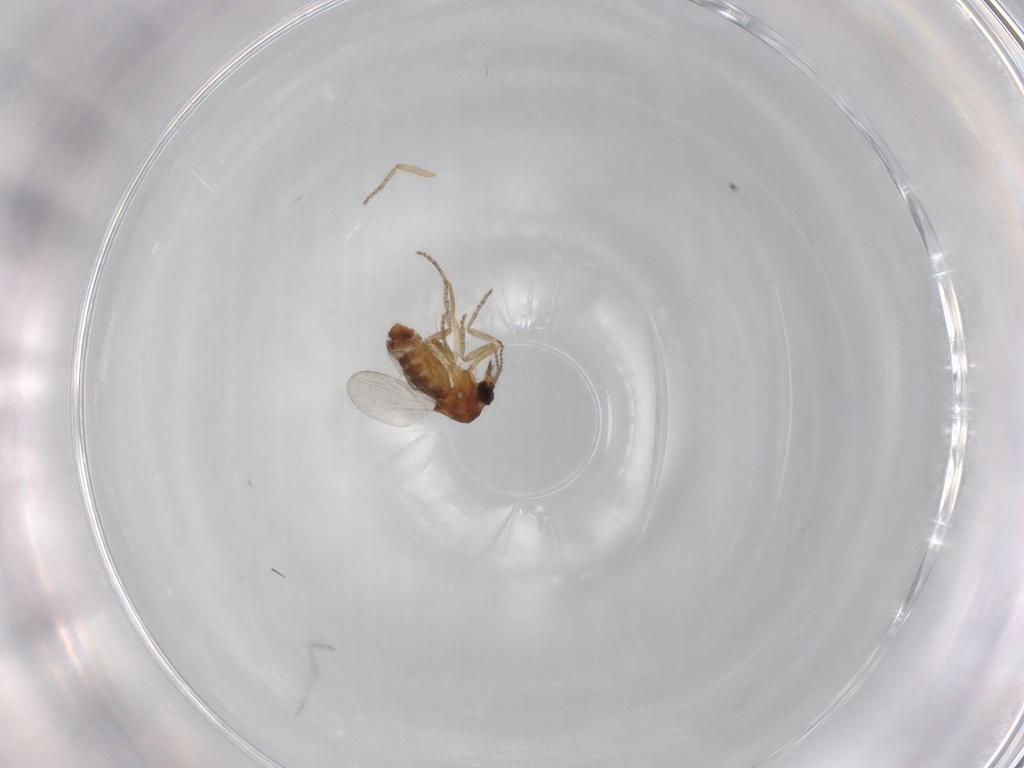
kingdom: Animalia
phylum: Arthropoda
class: Insecta
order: Diptera
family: Ceratopogonidae
